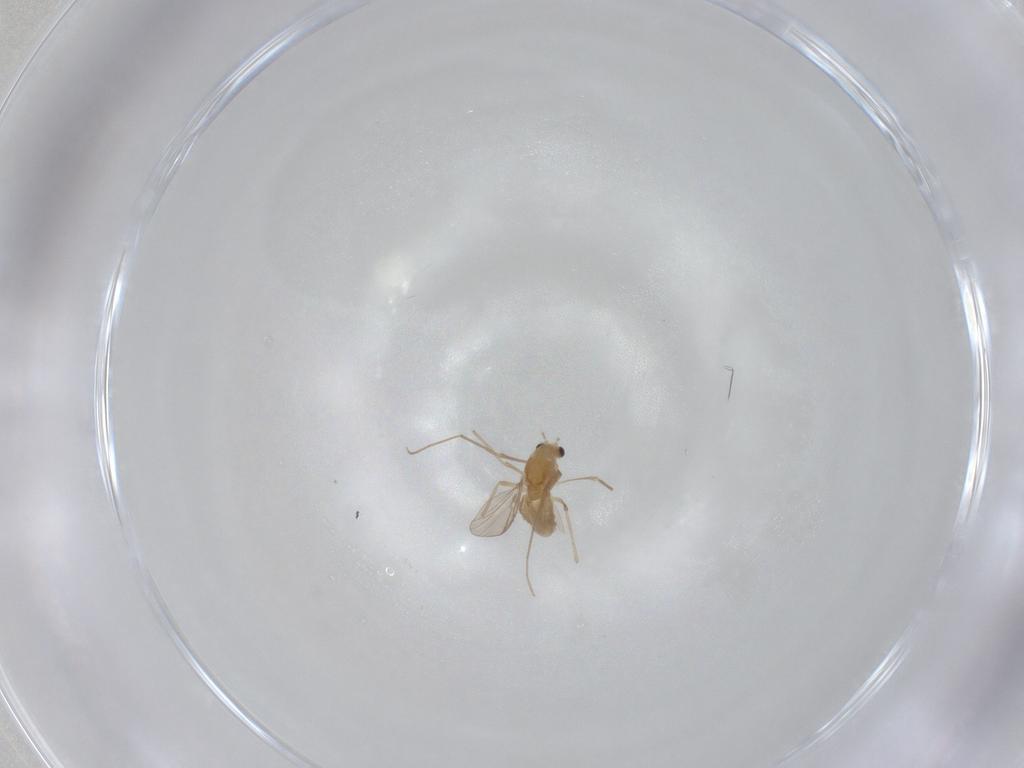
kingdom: Animalia
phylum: Arthropoda
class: Insecta
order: Diptera
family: Chironomidae
